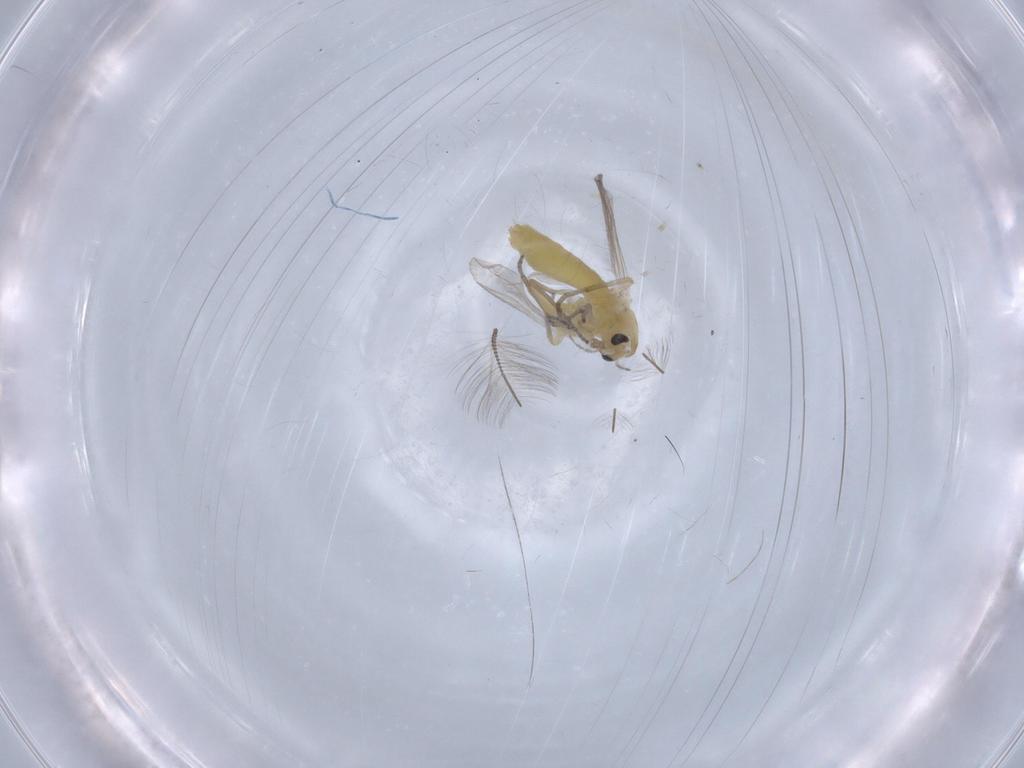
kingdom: Animalia
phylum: Arthropoda
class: Insecta
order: Diptera
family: Chironomidae
